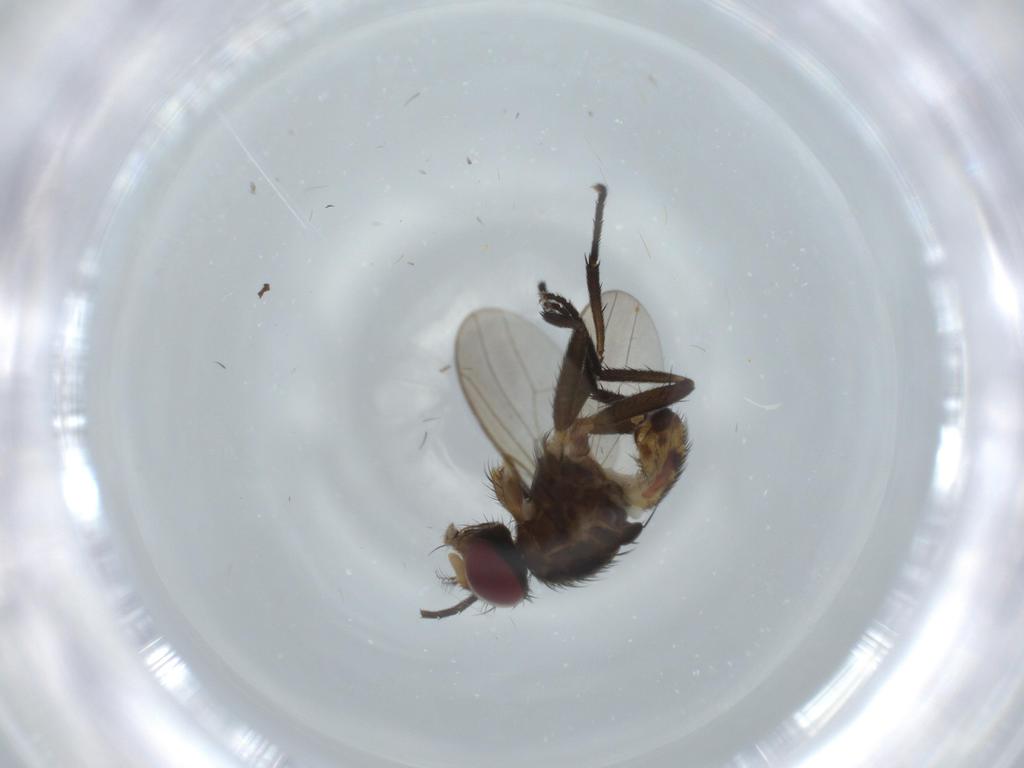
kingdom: Animalia
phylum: Arthropoda
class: Insecta
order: Diptera
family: Anthomyiidae
